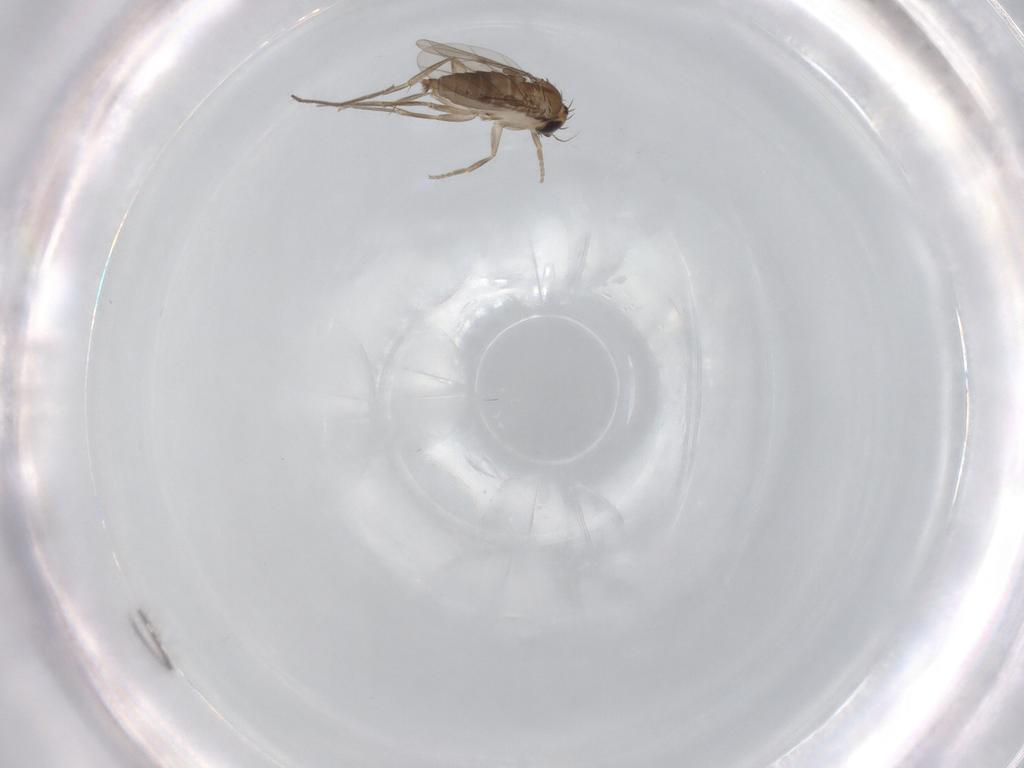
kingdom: Animalia
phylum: Arthropoda
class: Insecta
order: Diptera
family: Phoridae
